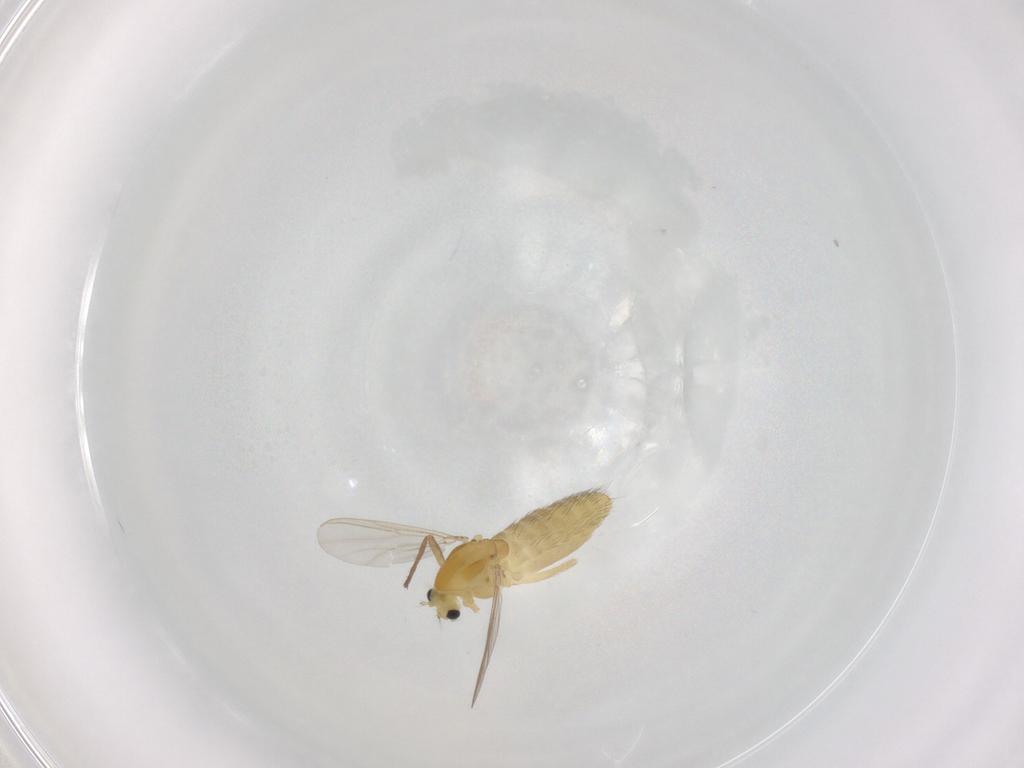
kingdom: Animalia
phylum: Arthropoda
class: Insecta
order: Diptera
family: Chironomidae
